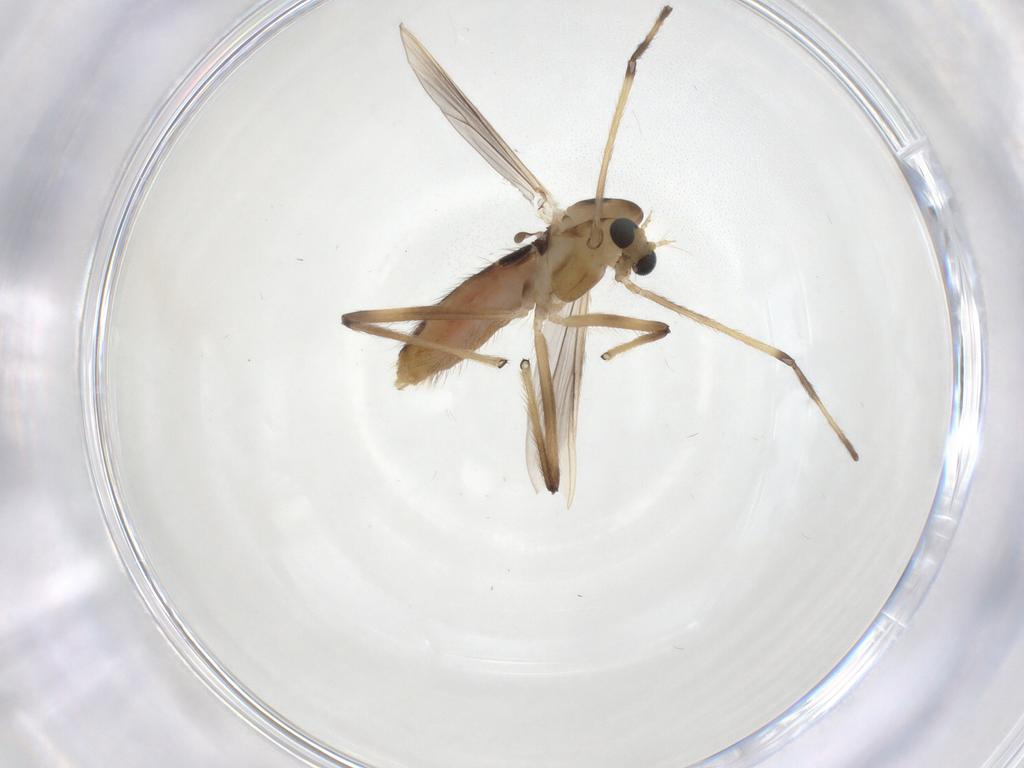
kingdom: Animalia
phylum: Arthropoda
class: Insecta
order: Diptera
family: Chironomidae
